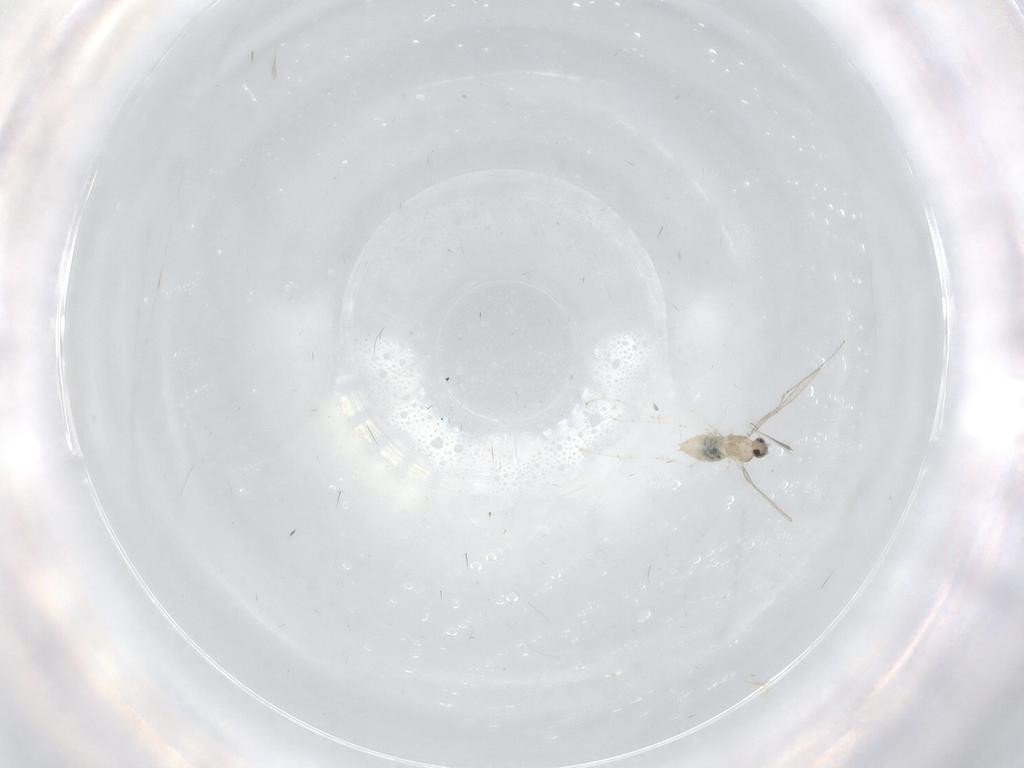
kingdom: Animalia
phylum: Arthropoda
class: Insecta
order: Diptera
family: Cecidomyiidae
